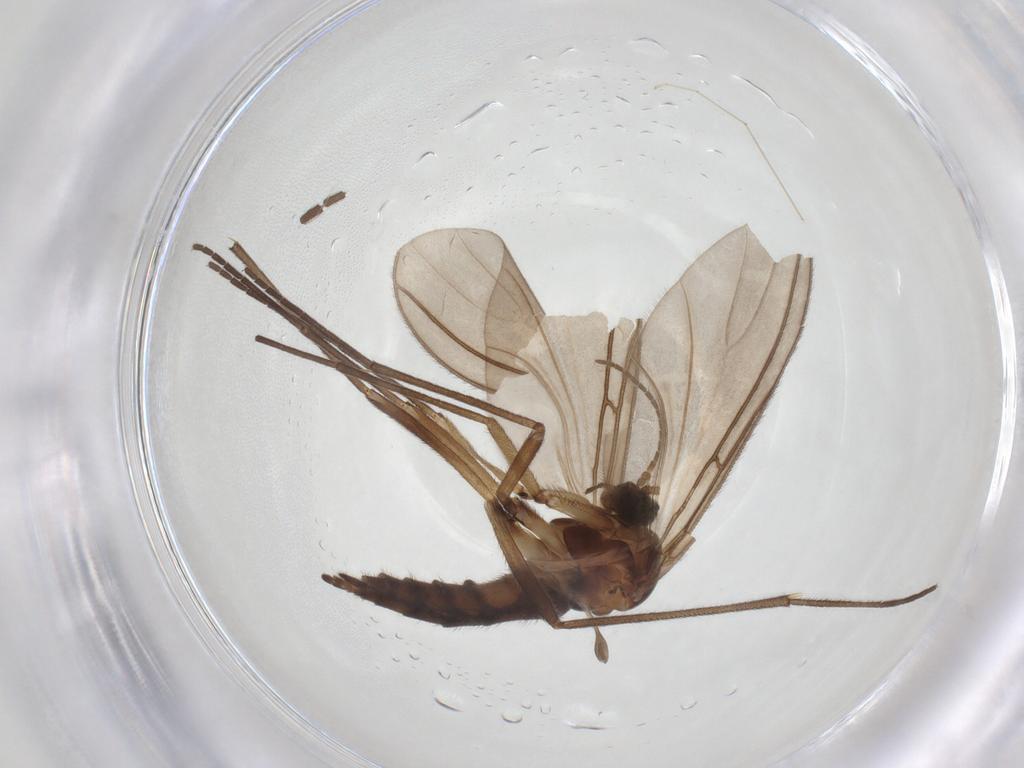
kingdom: Animalia
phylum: Arthropoda
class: Insecta
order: Diptera
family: Sciaridae
